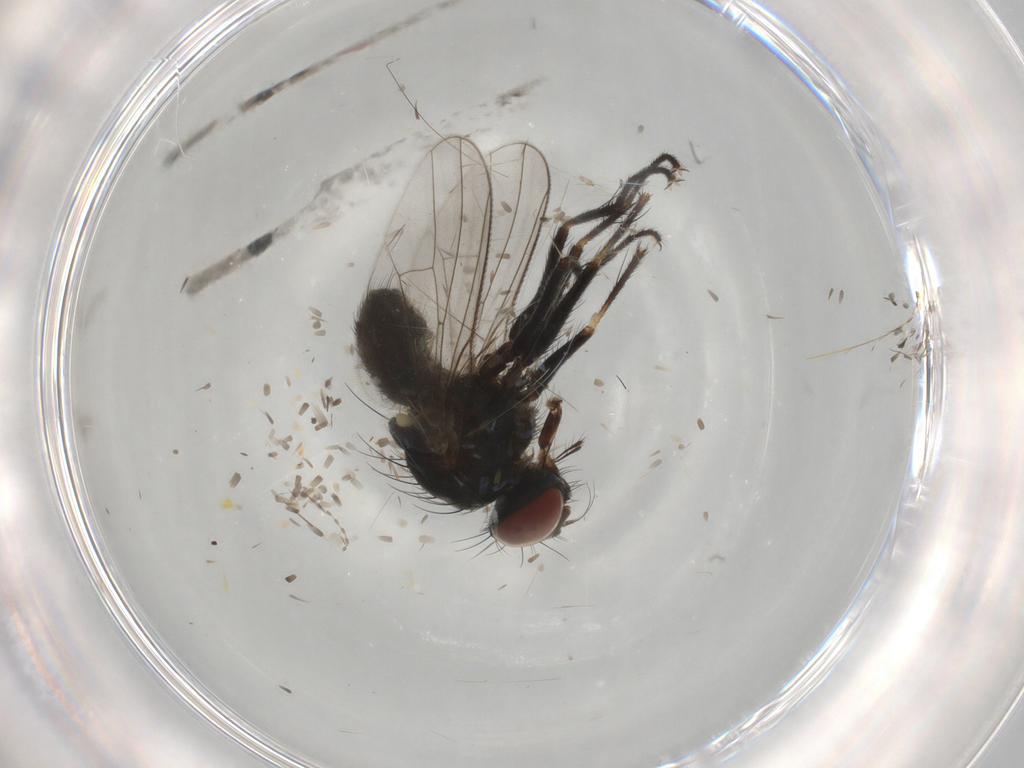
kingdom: Animalia
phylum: Arthropoda
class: Insecta
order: Diptera
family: Muscidae
